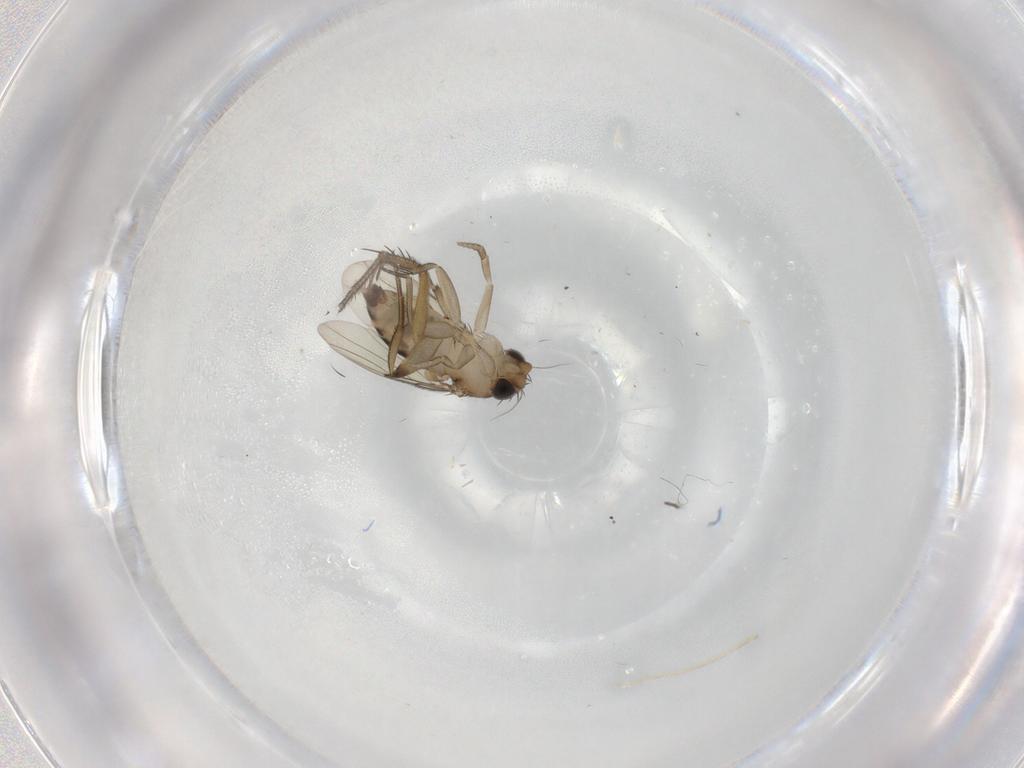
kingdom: Animalia
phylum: Arthropoda
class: Insecta
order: Diptera
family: Mycetophilidae
